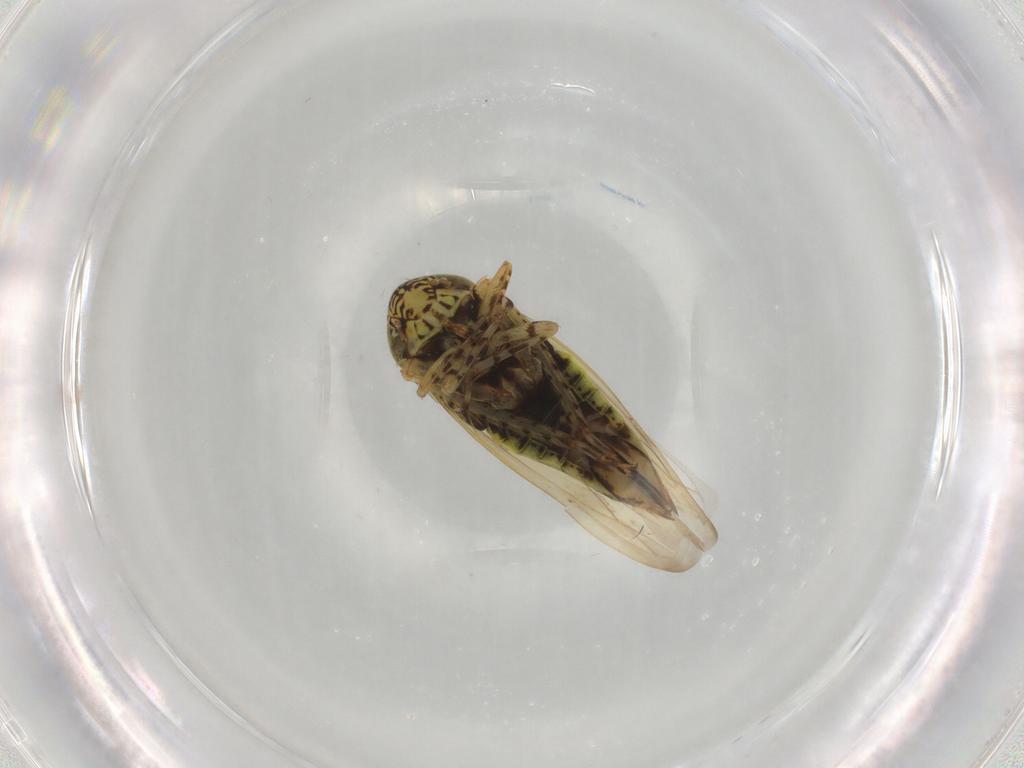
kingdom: Animalia
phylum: Arthropoda
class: Insecta
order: Hemiptera
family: Cicadellidae
